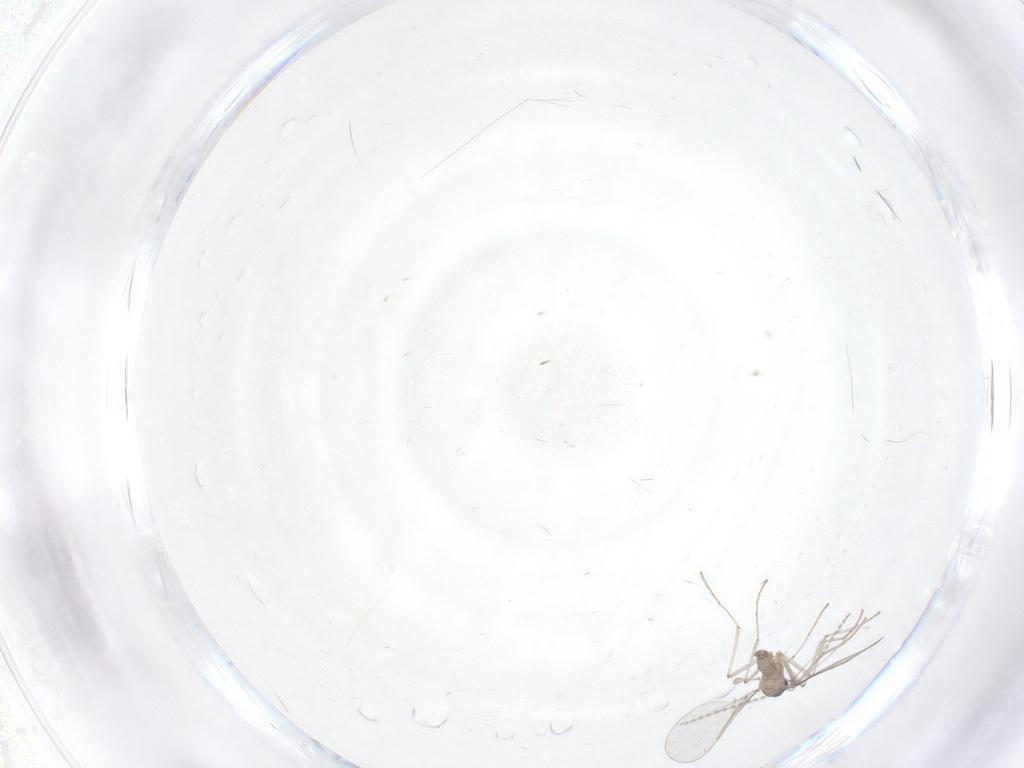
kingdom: Animalia
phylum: Arthropoda
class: Insecta
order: Diptera
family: Cecidomyiidae
